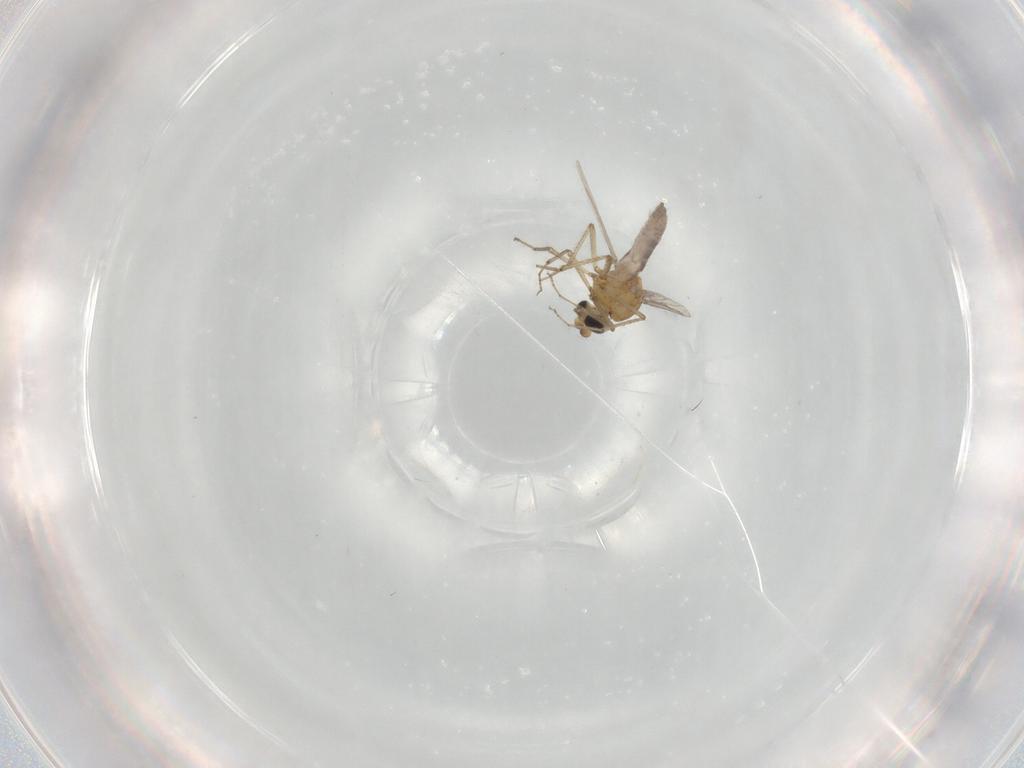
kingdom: Animalia
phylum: Arthropoda
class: Insecta
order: Diptera
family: Ceratopogonidae
